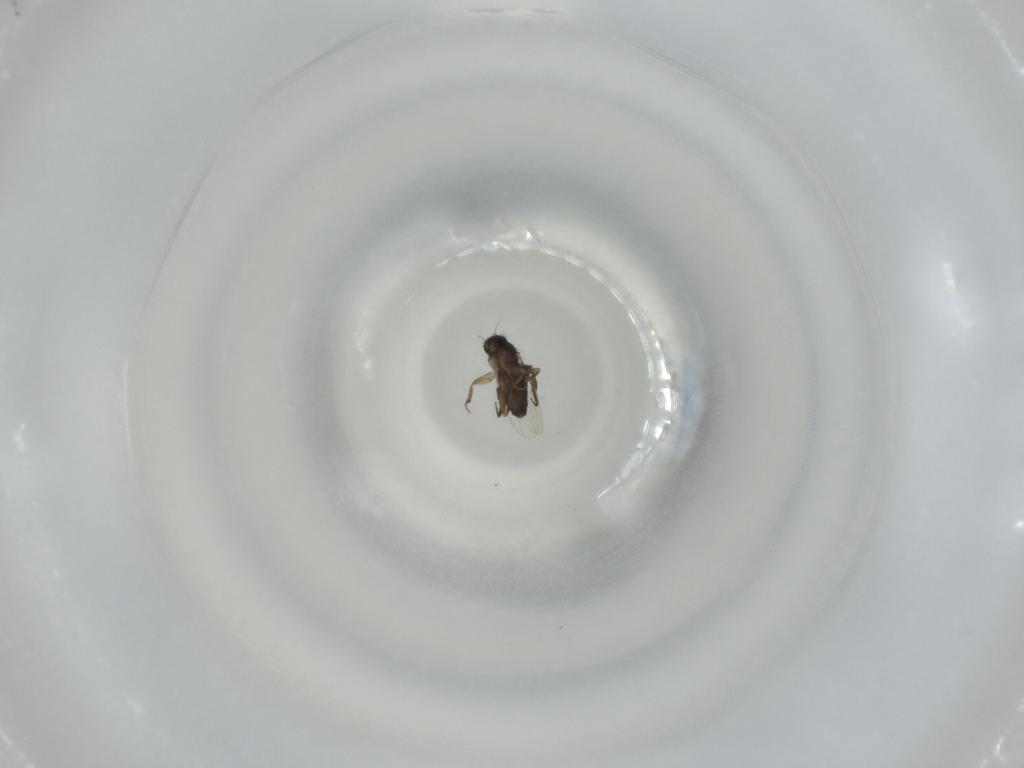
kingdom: Animalia
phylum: Arthropoda
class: Insecta
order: Diptera
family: Phoridae
